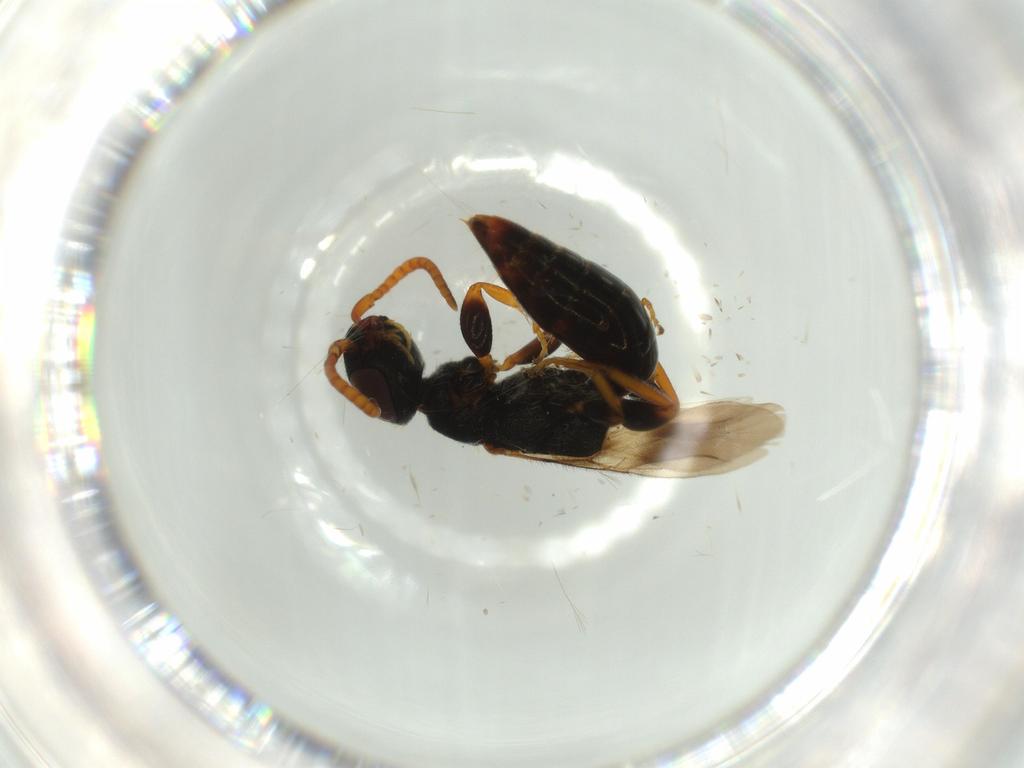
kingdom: Animalia
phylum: Arthropoda
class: Insecta
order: Hymenoptera
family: Bethylidae
